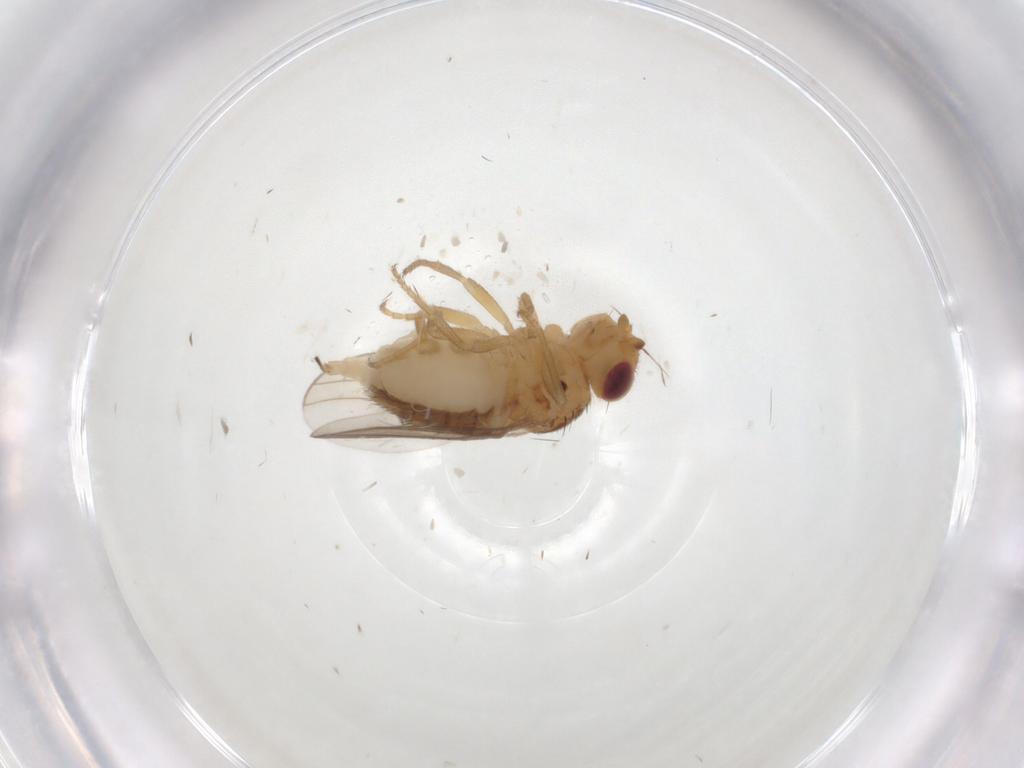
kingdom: Animalia
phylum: Arthropoda
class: Insecta
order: Diptera
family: Chloropidae
